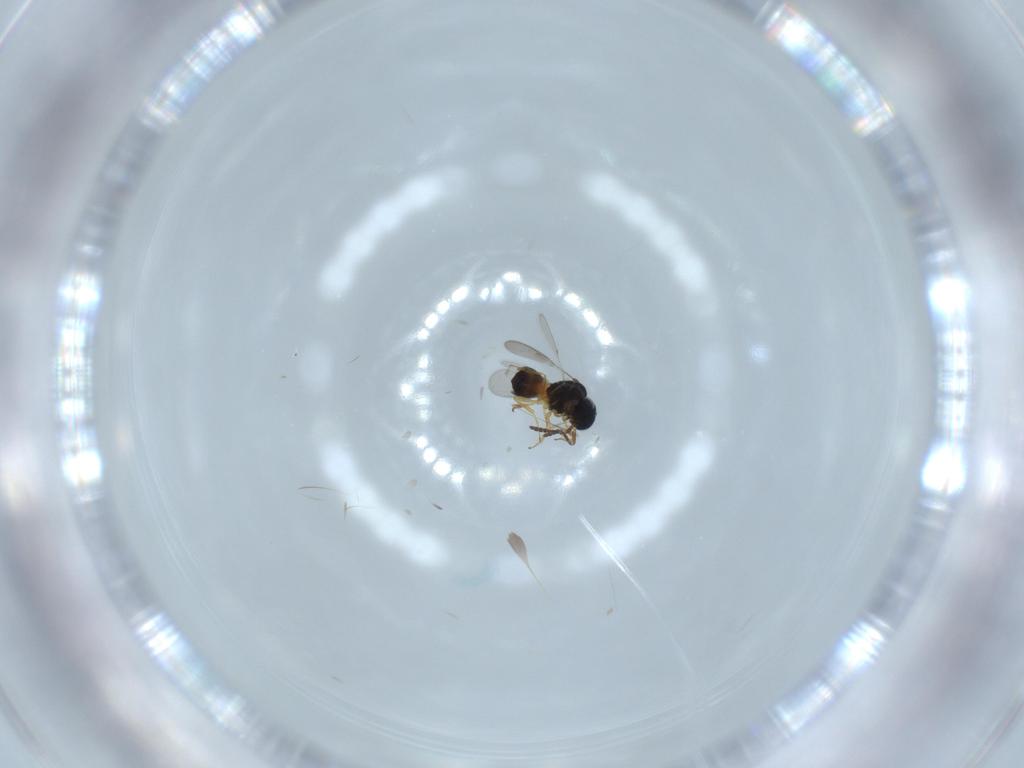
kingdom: Animalia
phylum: Arthropoda
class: Insecta
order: Hymenoptera
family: Scelionidae
